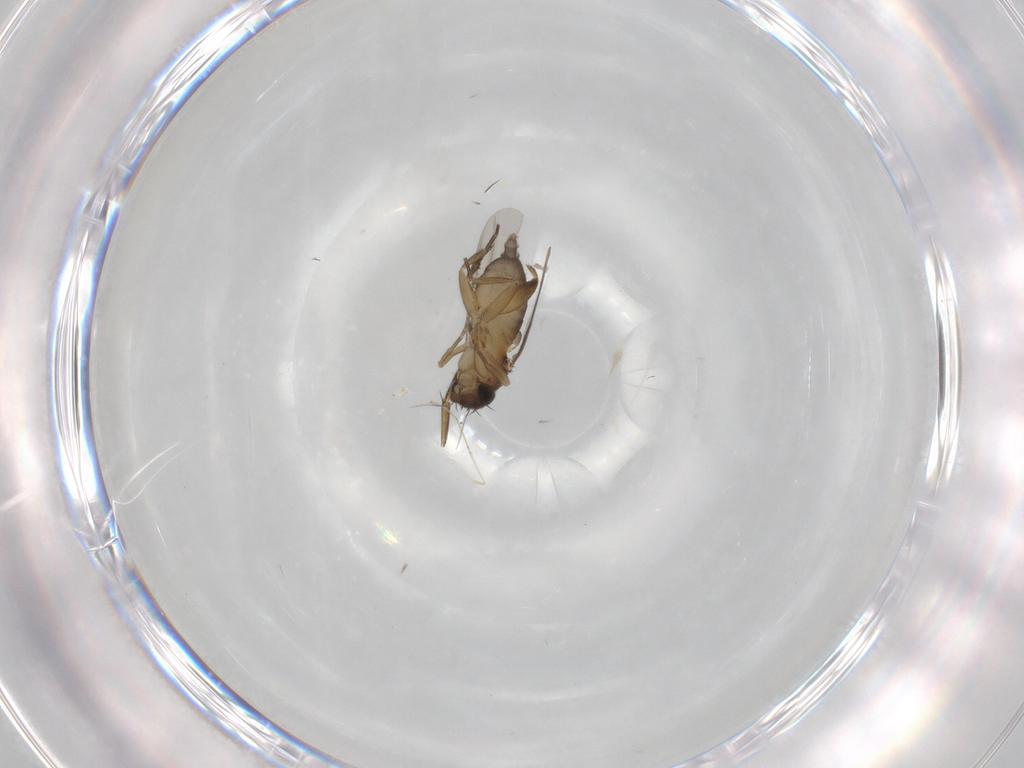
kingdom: Animalia
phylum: Arthropoda
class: Insecta
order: Diptera
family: Phoridae
